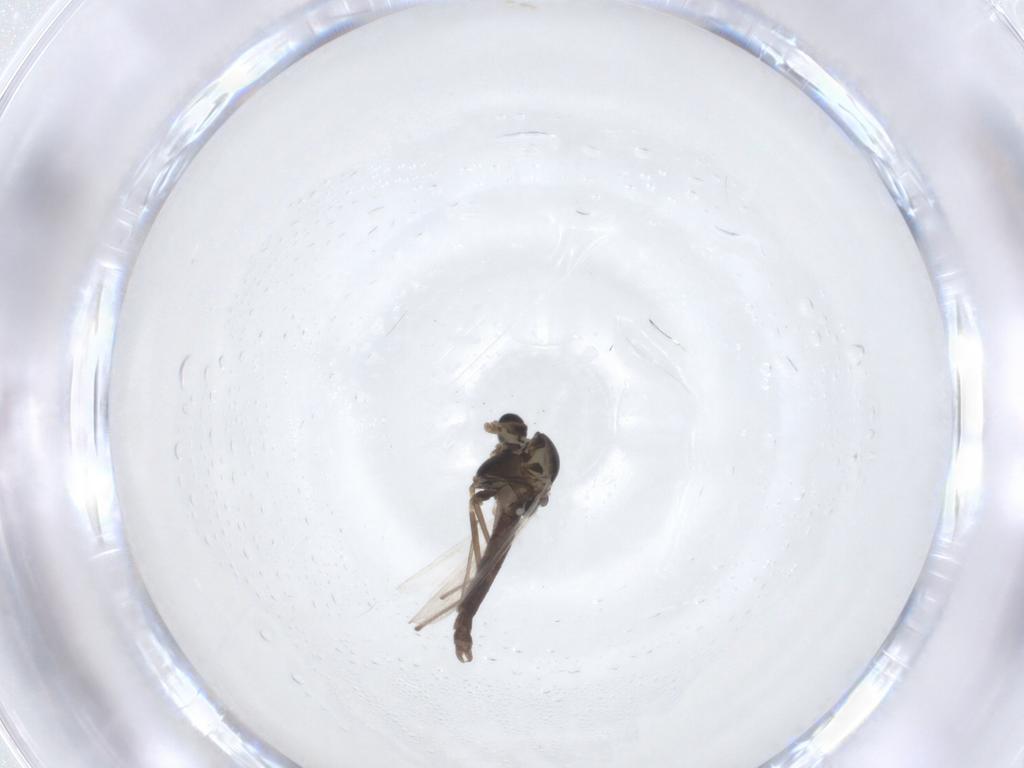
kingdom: Animalia
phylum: Arthropoda
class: Insecta
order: Diptera
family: Chironomidae
